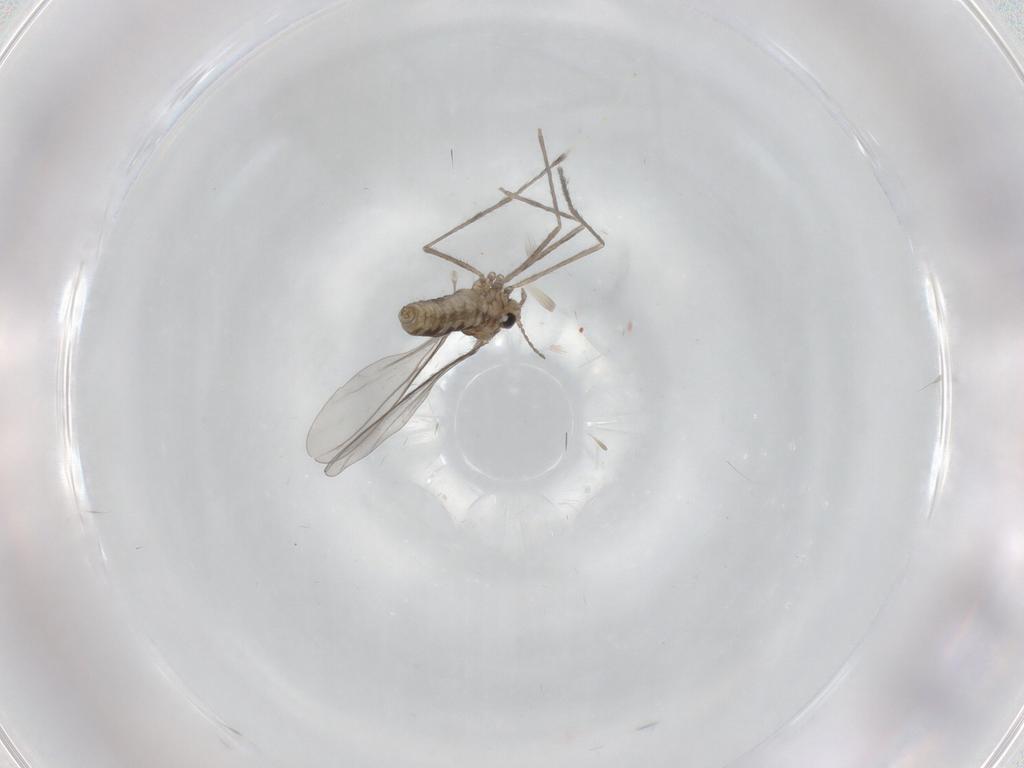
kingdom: Animalia
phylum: Arthropoda
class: Insecta
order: Diptera
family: Cecidomyiidae
